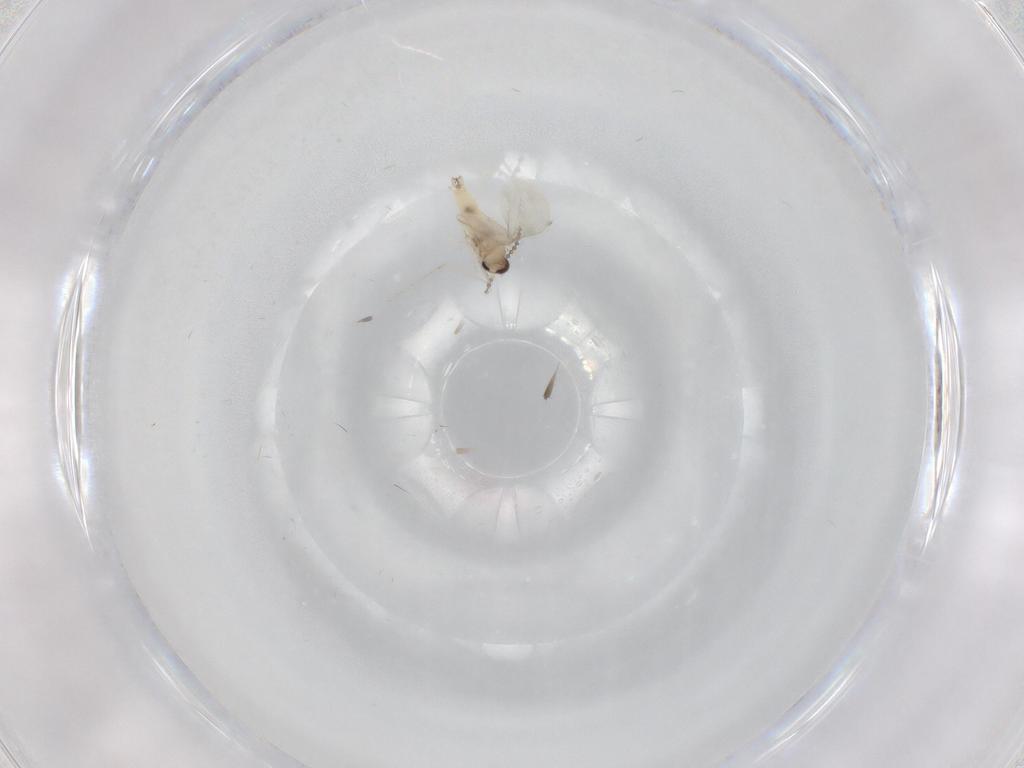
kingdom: Animalia
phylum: Arthropoda
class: Insecta
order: Diptera
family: Cecidomyiidae
